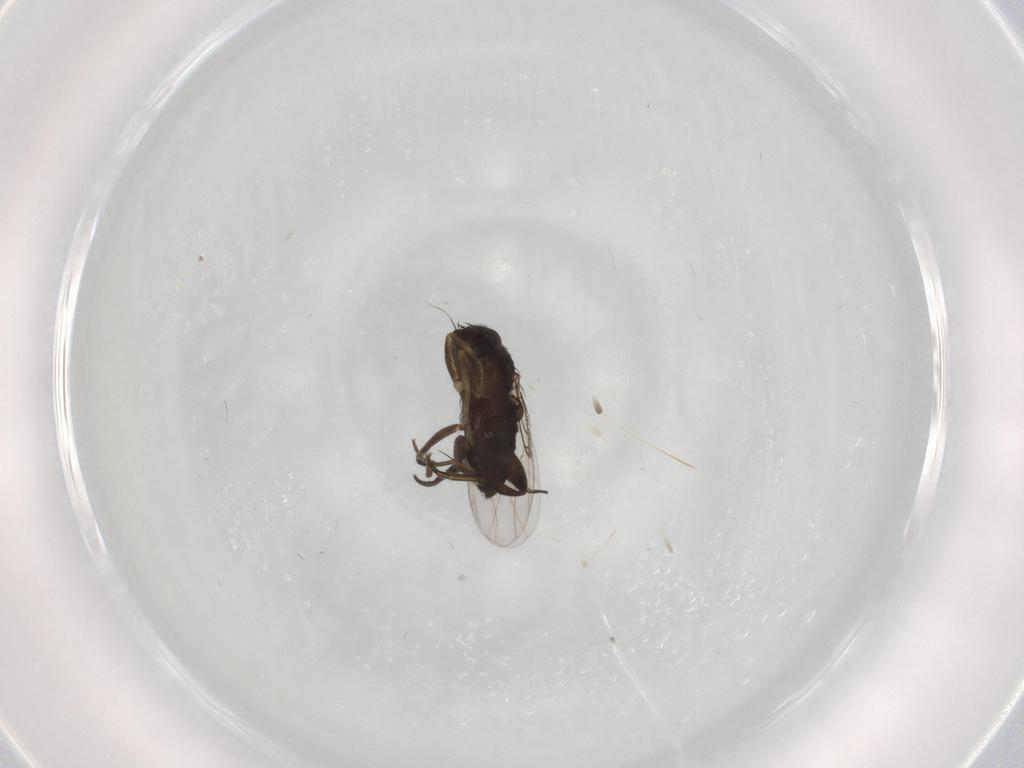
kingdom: Animalia
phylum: Arthropoda
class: Insecta
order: Diptera
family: Phoridae
